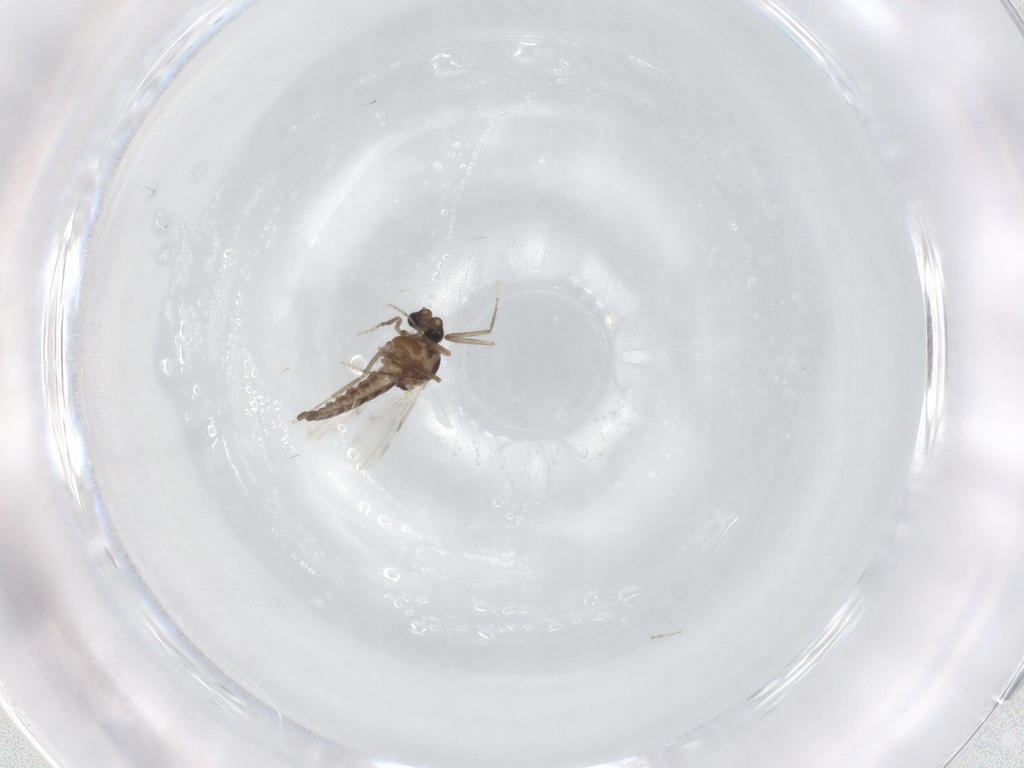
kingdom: Animalia
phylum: Arthropoda
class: Insecta
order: Diptera
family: Ceratopogonidae
